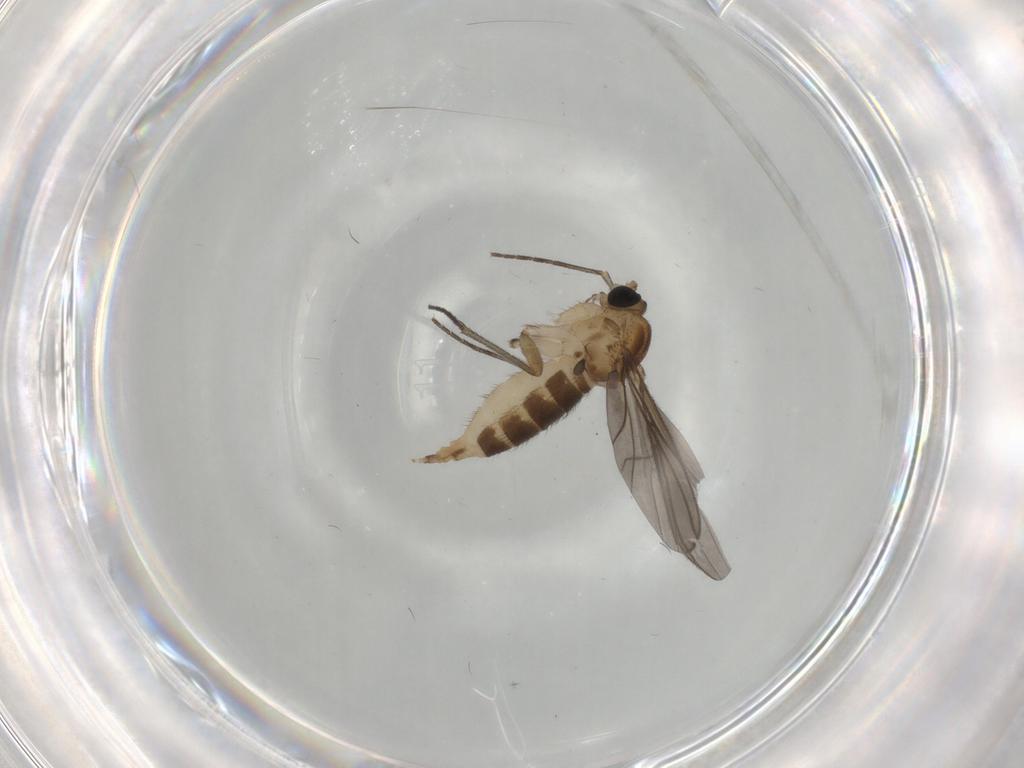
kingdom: Animalia
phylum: Arthropoda
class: Insecta
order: Diptera
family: Sciaridae
